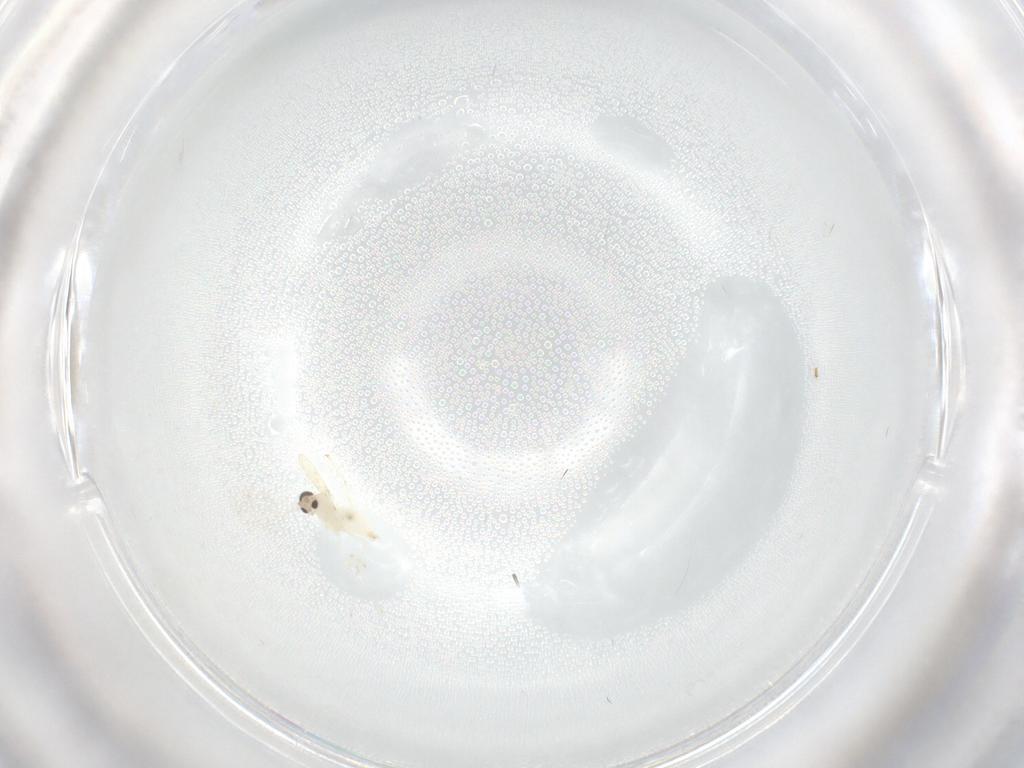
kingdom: Animalia
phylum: Arthropoda
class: Insecta
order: Diptera
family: Cecidomyiidae
